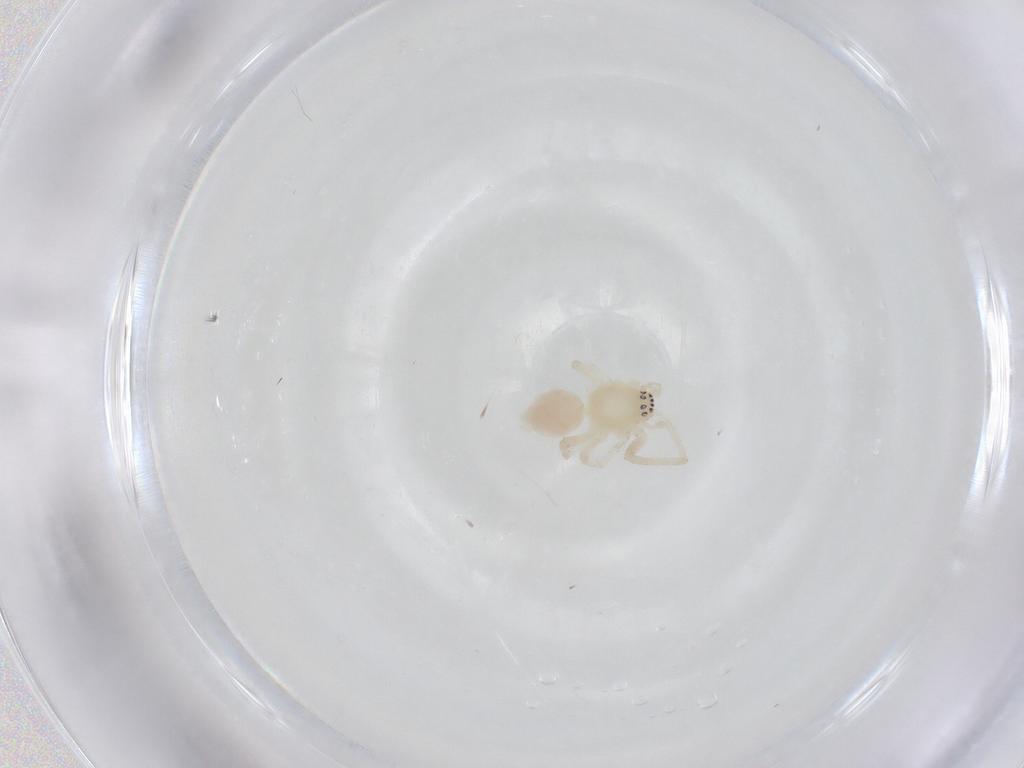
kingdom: Animalia
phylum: Arthropoda
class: Arachnida
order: Araneae
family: Anyphaenidae
